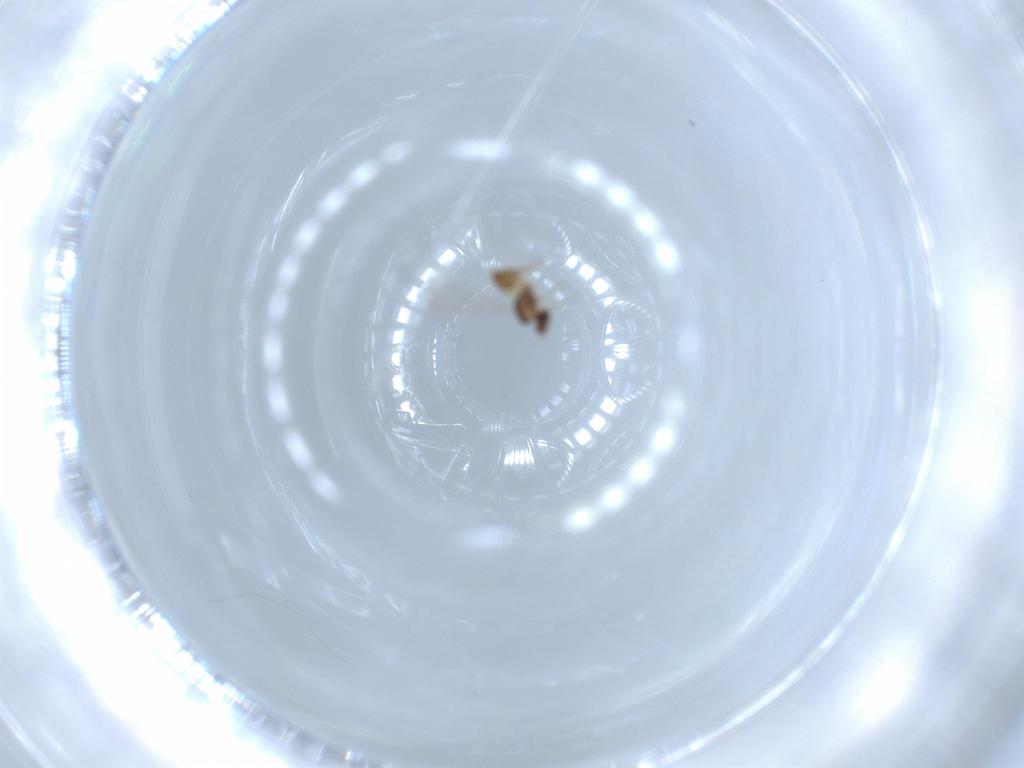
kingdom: Animalia
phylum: Arthropoda
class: Insecta
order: Hymenoptera
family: Mymaridae
